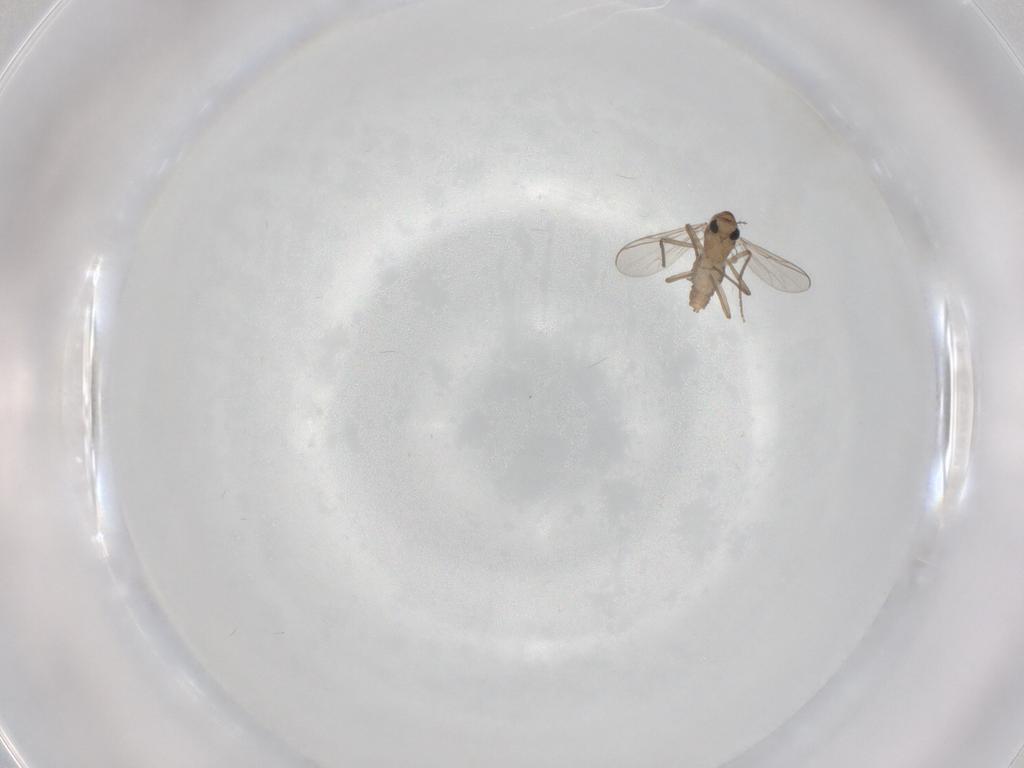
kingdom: Animalia
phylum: Arthropoda
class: Insecta
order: Diptera
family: Chironomidae
